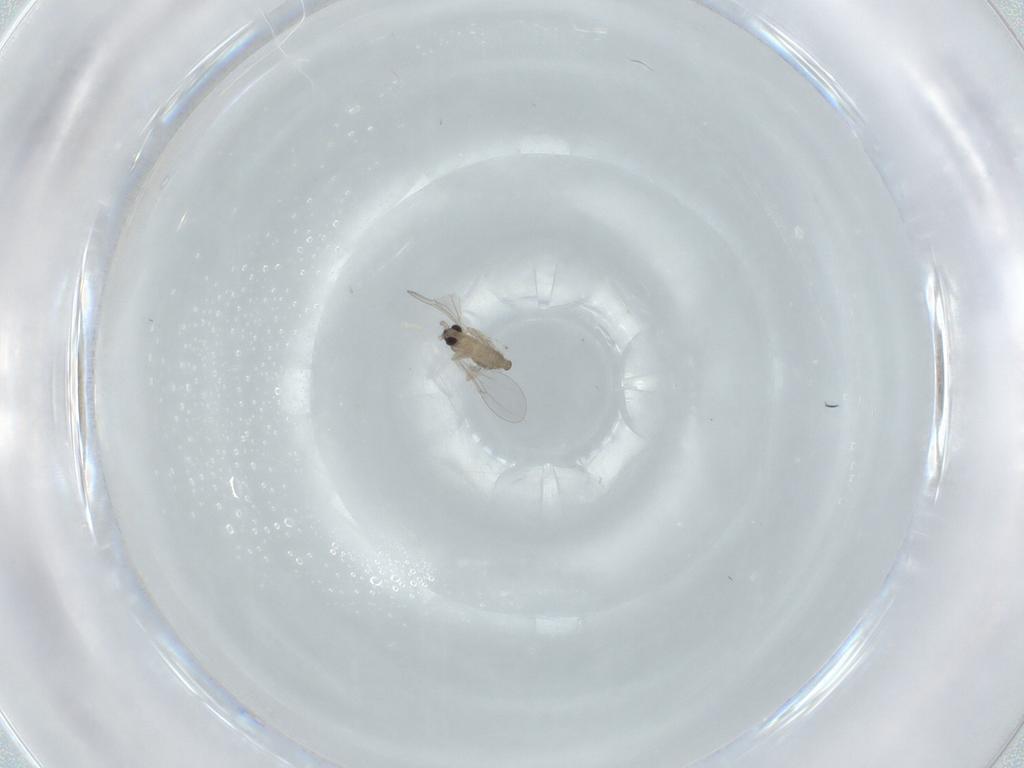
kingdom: Animalia
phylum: Arthropoda
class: Insecta
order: Diptera
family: Cecidomyiidae
